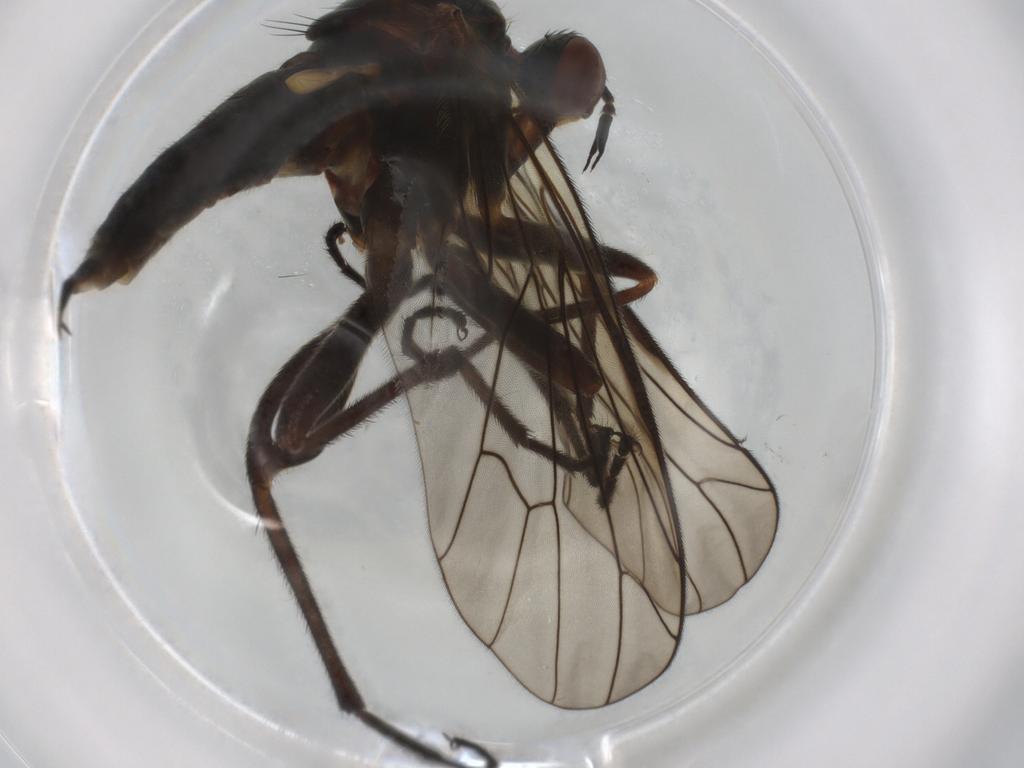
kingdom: Animalia
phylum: Arthropoda
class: Insecta
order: Diptera
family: Empididae
